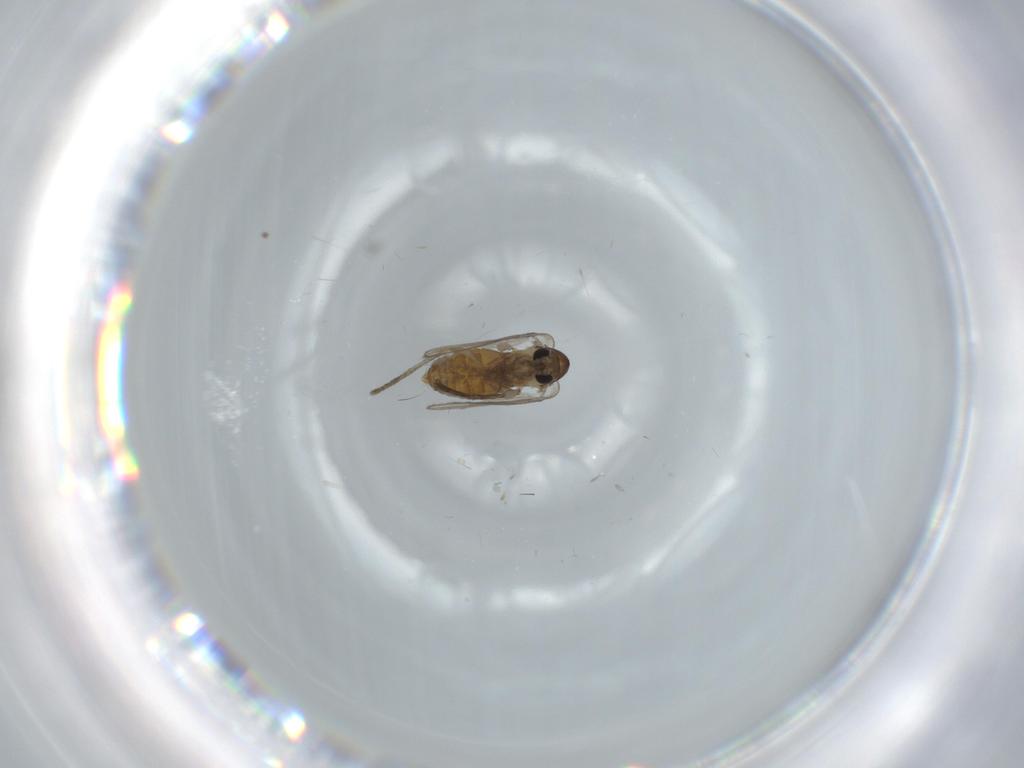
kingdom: Animalia
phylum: Arthropoda
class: Insecta
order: Diptera
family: Psychodidae
